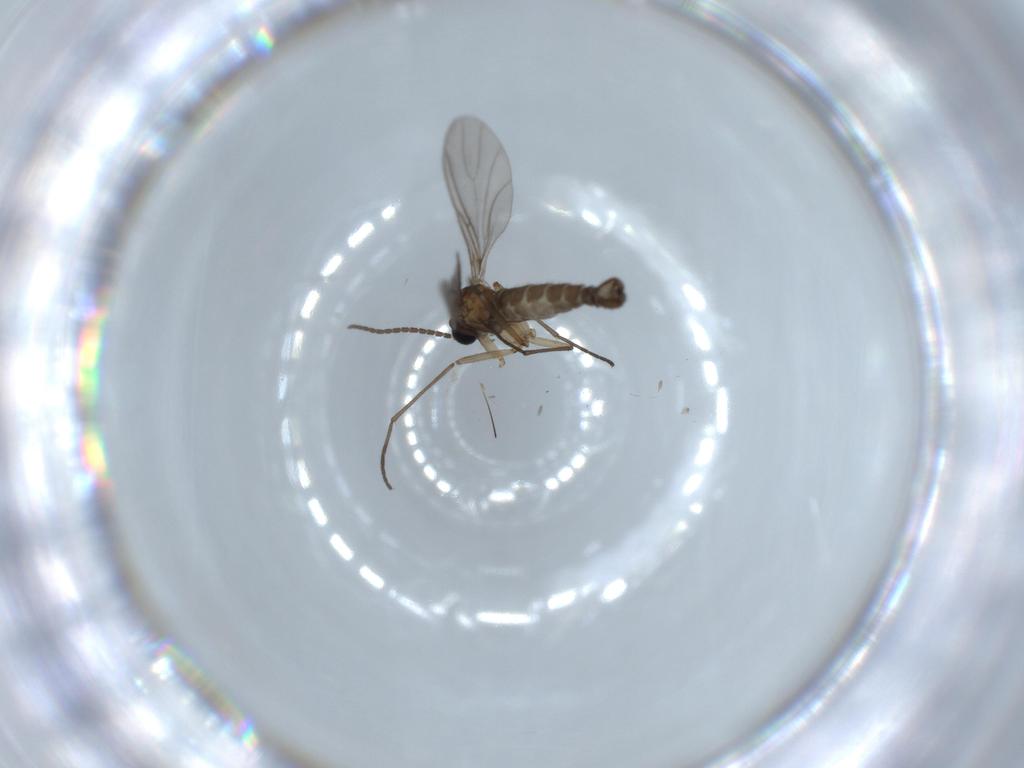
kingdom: Animalia
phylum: Arthropoda
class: Insecta
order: Diptera
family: Sciaridae
